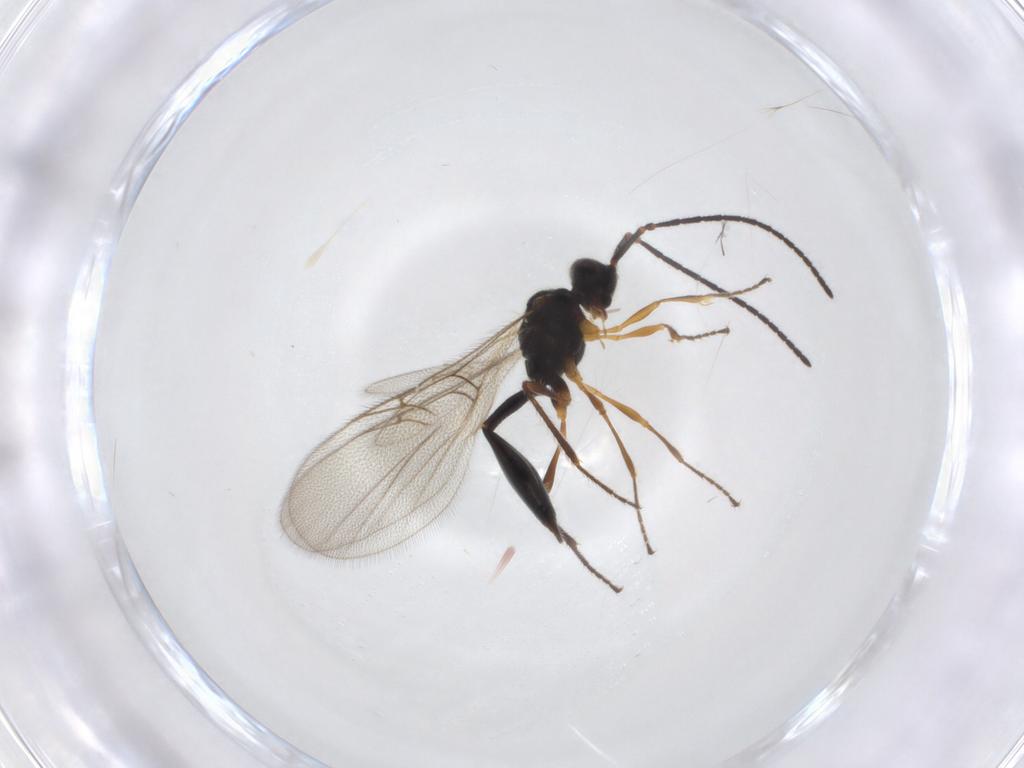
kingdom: Animalia
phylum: Arthropoda
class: Insecta
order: Hymenoptera
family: Diapriidae
